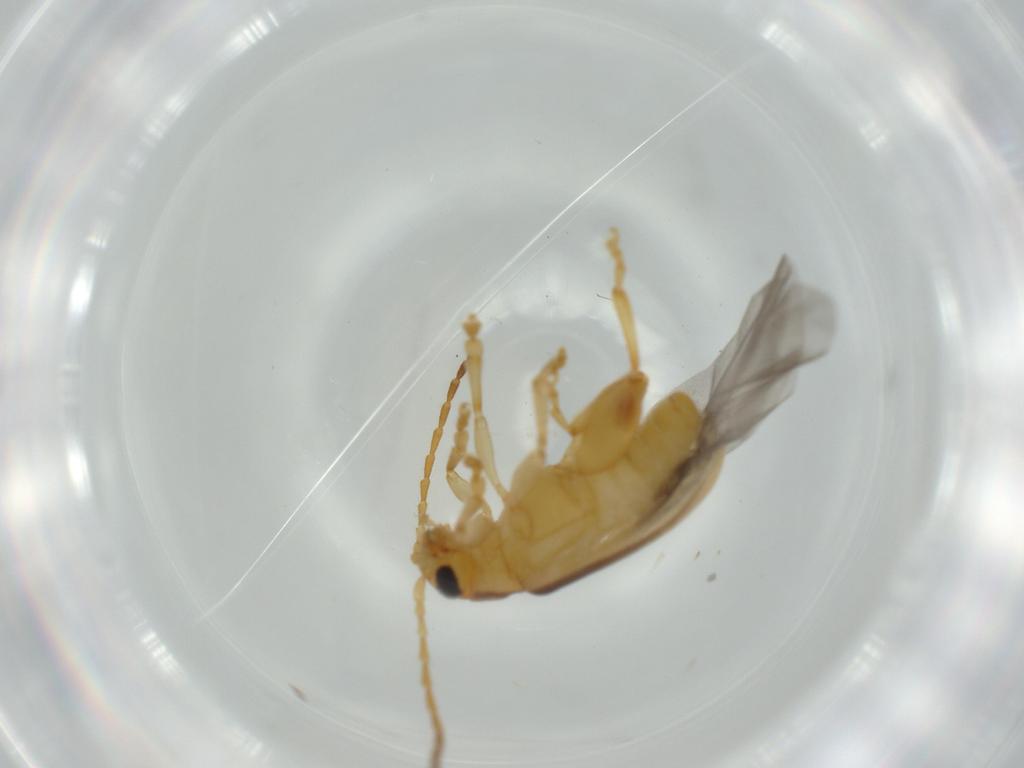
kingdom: Animalia
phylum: Arthropoda
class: Insecta
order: Coleoptera
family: Chrysomelidae
